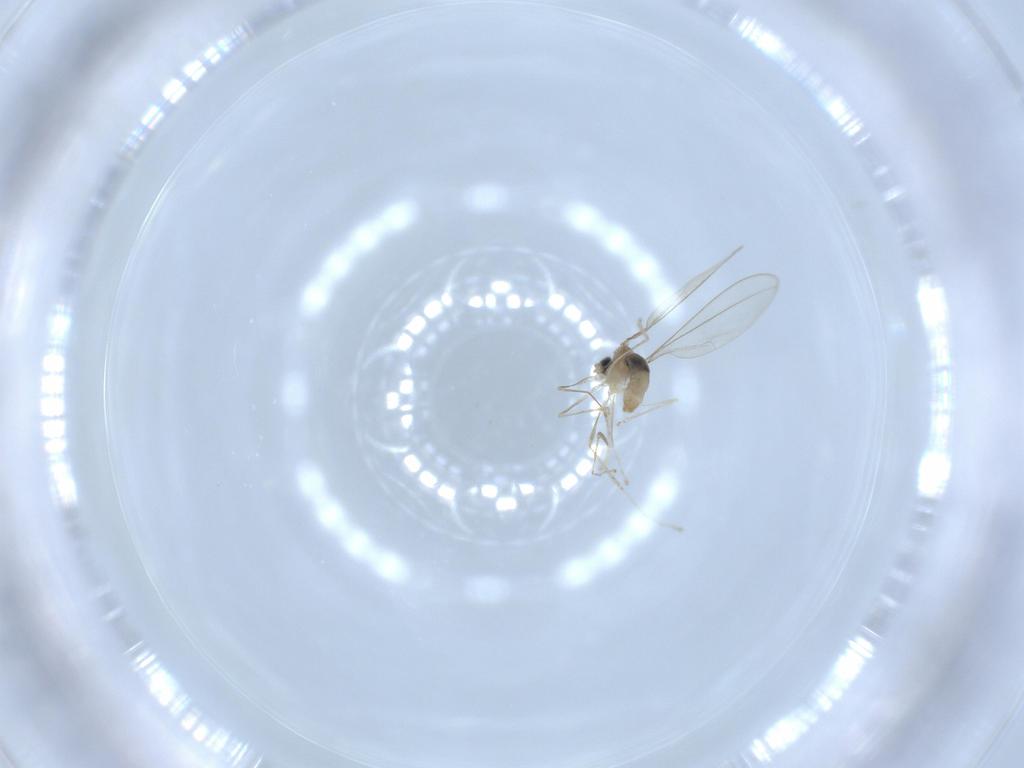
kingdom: Animalia
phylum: Arthropoda
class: Insecta
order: Diptera
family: Cecidomyiidae
